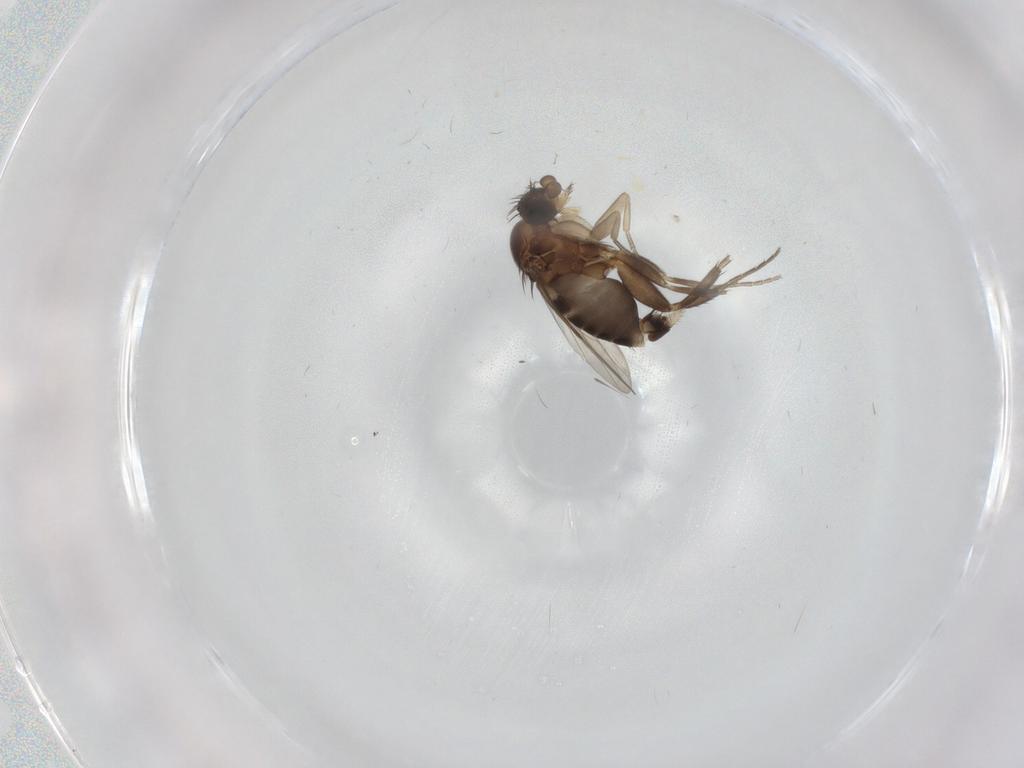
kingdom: Animalia
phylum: Arthropoda
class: Insecta
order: Diptera
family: Phoridae
